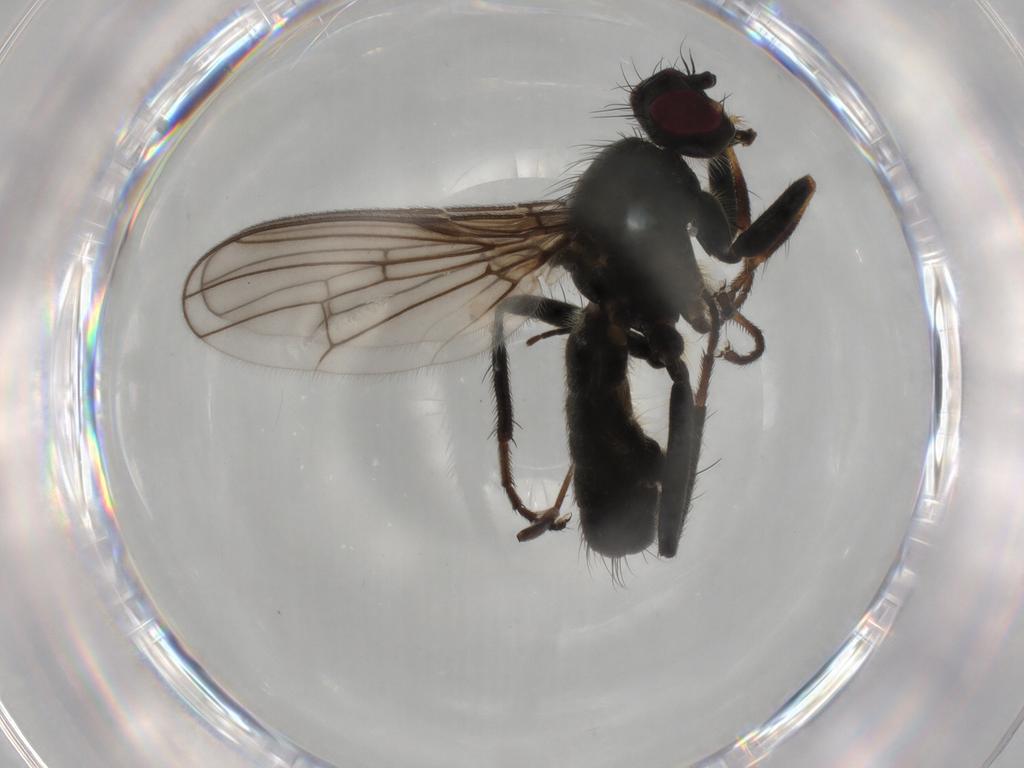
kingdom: Animalia
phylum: Arthropoda
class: Insecta
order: Diptera
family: Scathophagidae
